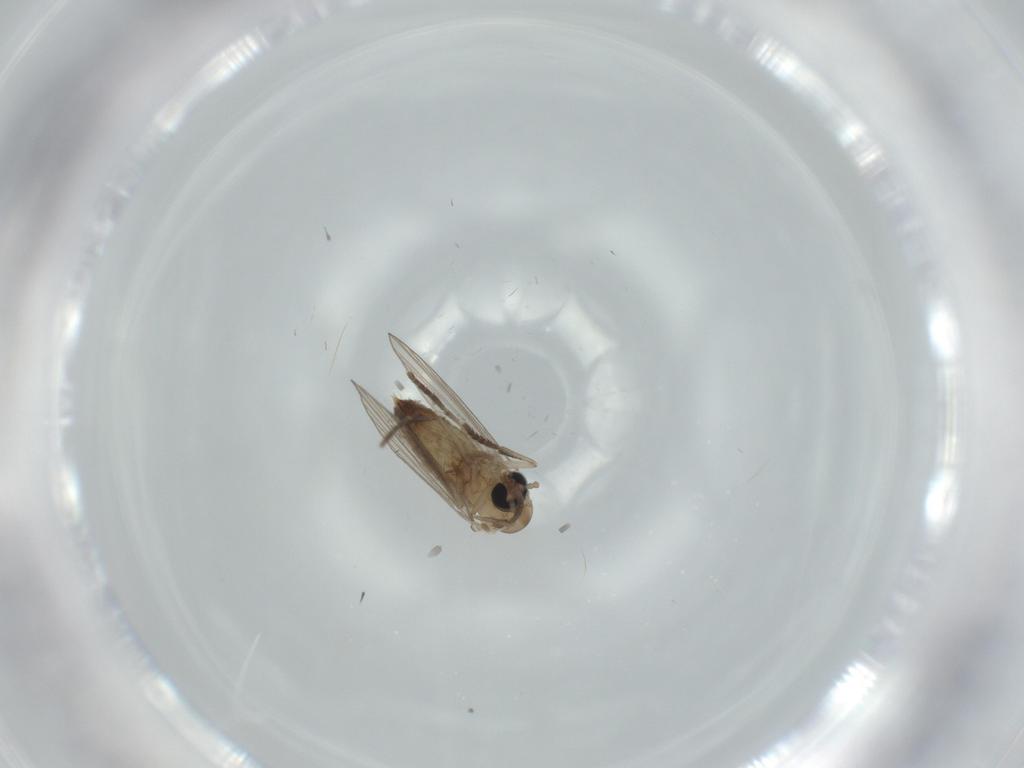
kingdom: Animalia
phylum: Arthropoda
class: Insecta
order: Diptera
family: Psychodidae
